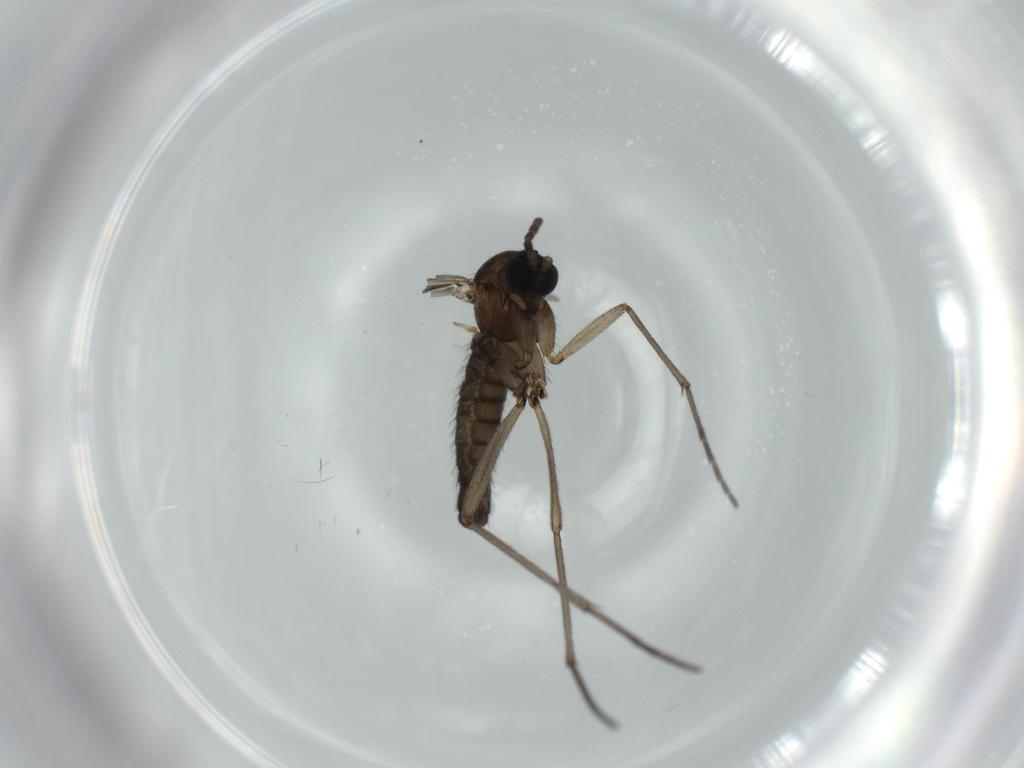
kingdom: Animalia
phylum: Arthropoda
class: Insecta
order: Diptera
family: Sciaridae
